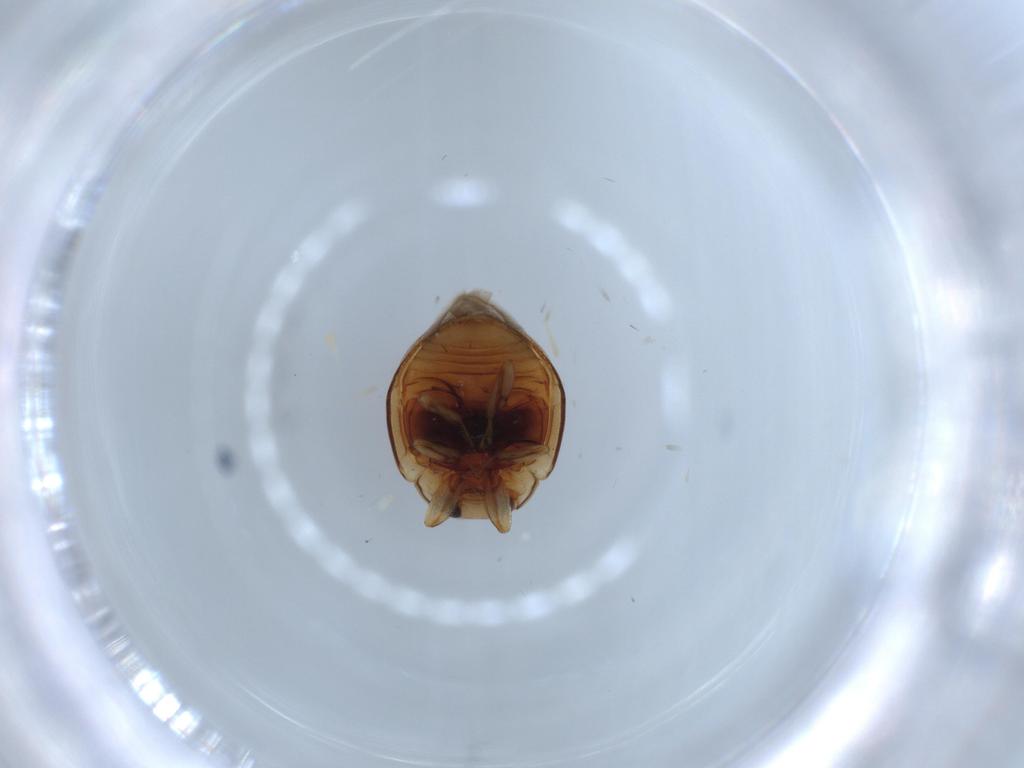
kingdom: Animalia
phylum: Arthropoda
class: Insecta
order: Coleoptera
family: Coccinellidae
